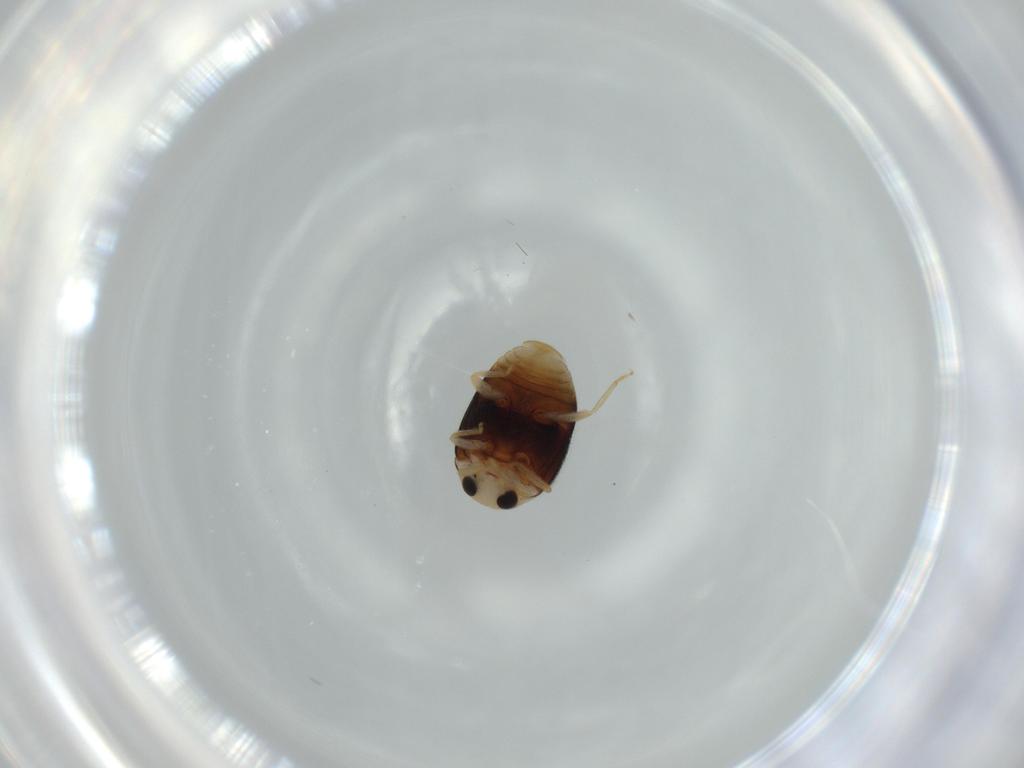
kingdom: Animalia
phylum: Arthropoda
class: Insecta
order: Coleoptera
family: Coccinellidae
